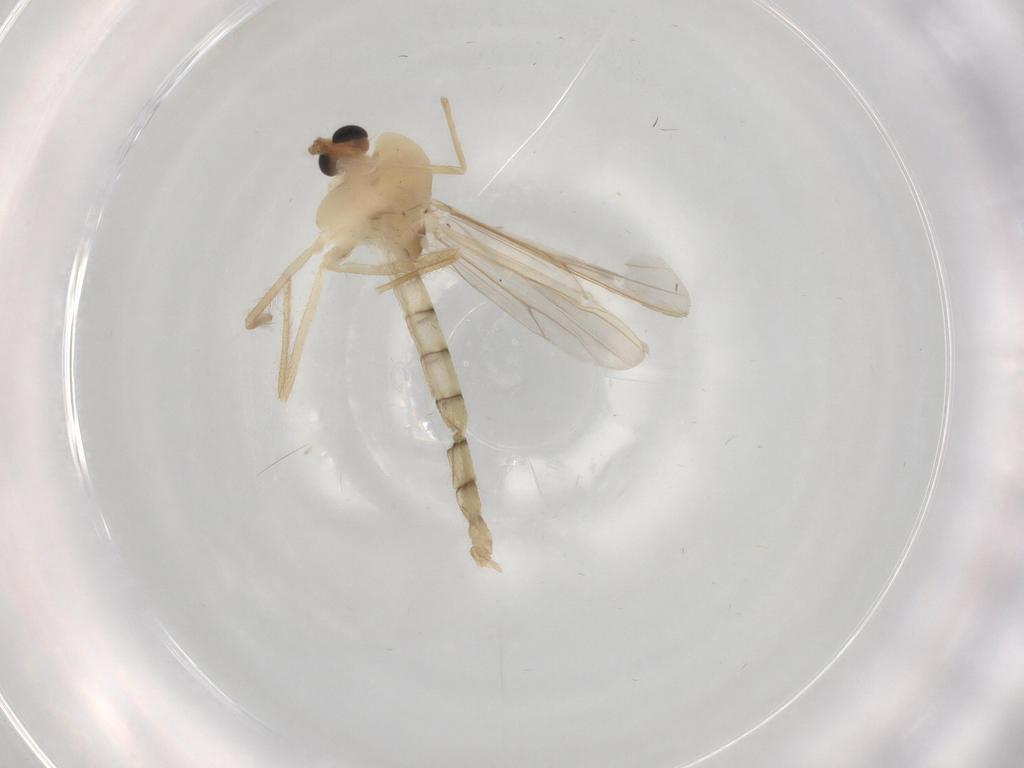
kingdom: Animalia
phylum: Arthropoda
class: Insecta
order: Diptera
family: Chironomidae
